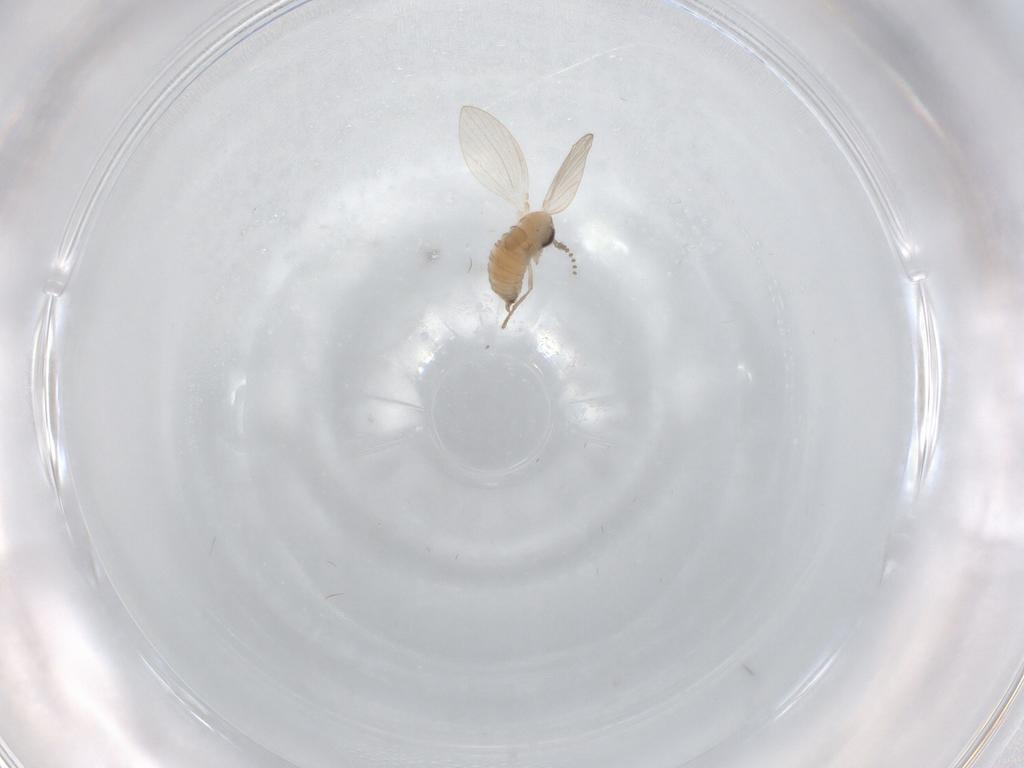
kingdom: Animalia
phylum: Arthropoda
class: Insecta
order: Diptera
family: Psychodidae
